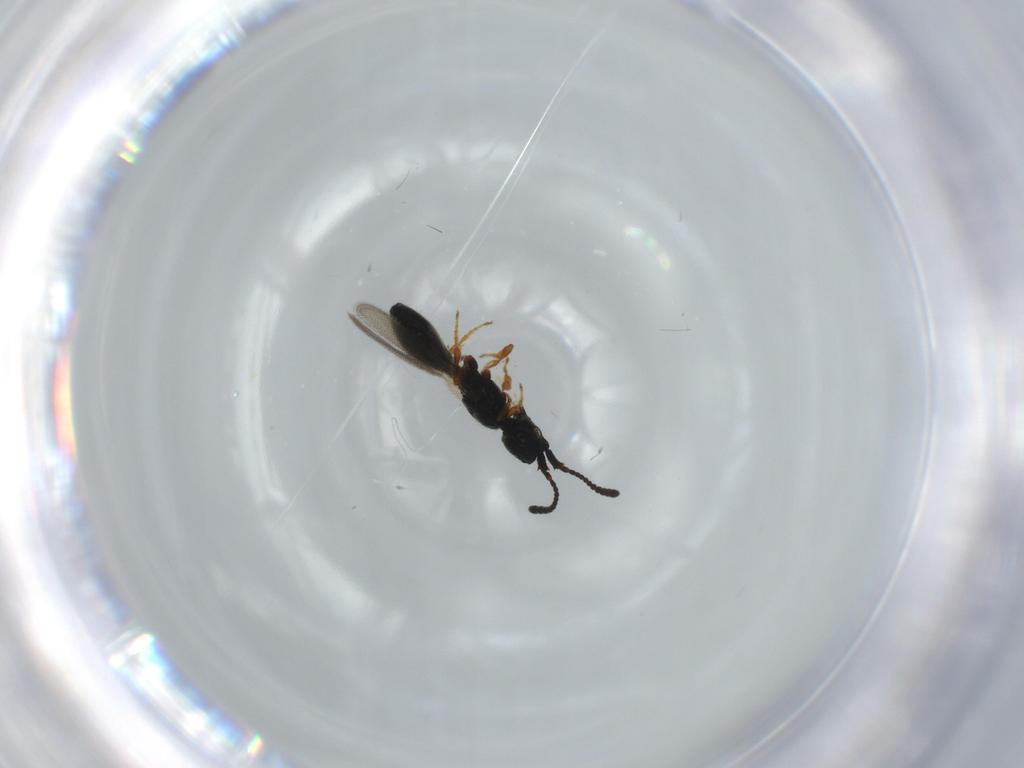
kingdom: Animalia
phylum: Arthropoda
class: Insecta
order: Hymenoptera
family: Diapriidae
